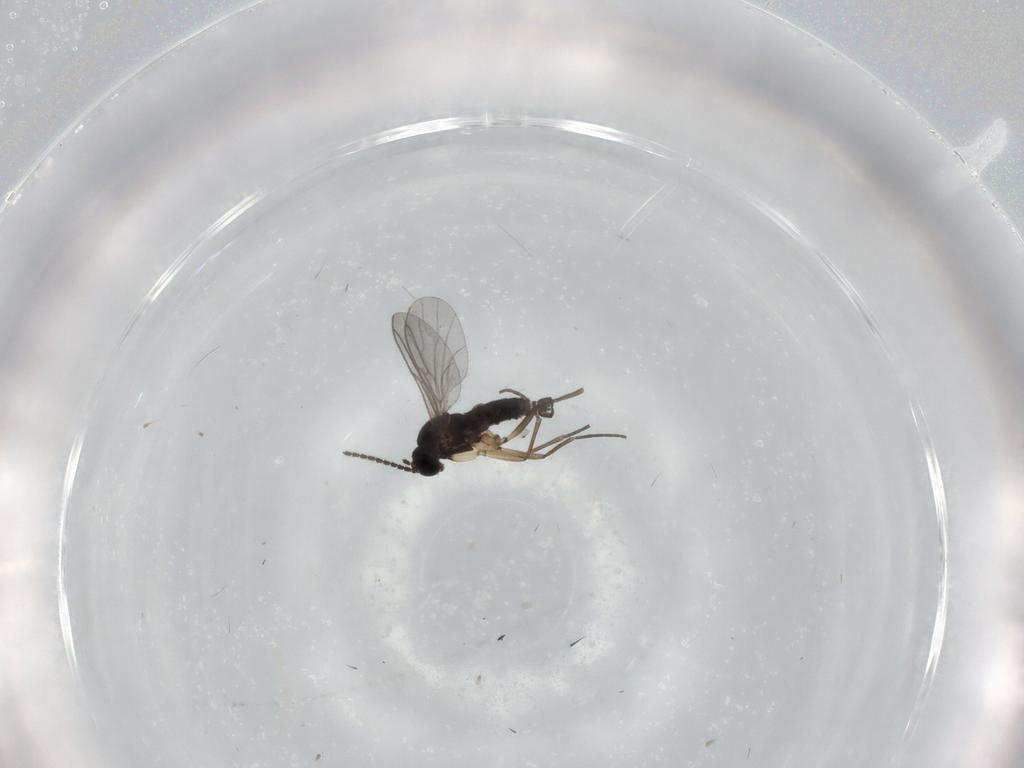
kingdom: Animalia
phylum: Arthropoda
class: Insecta
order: Diptera
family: Sciaridae
